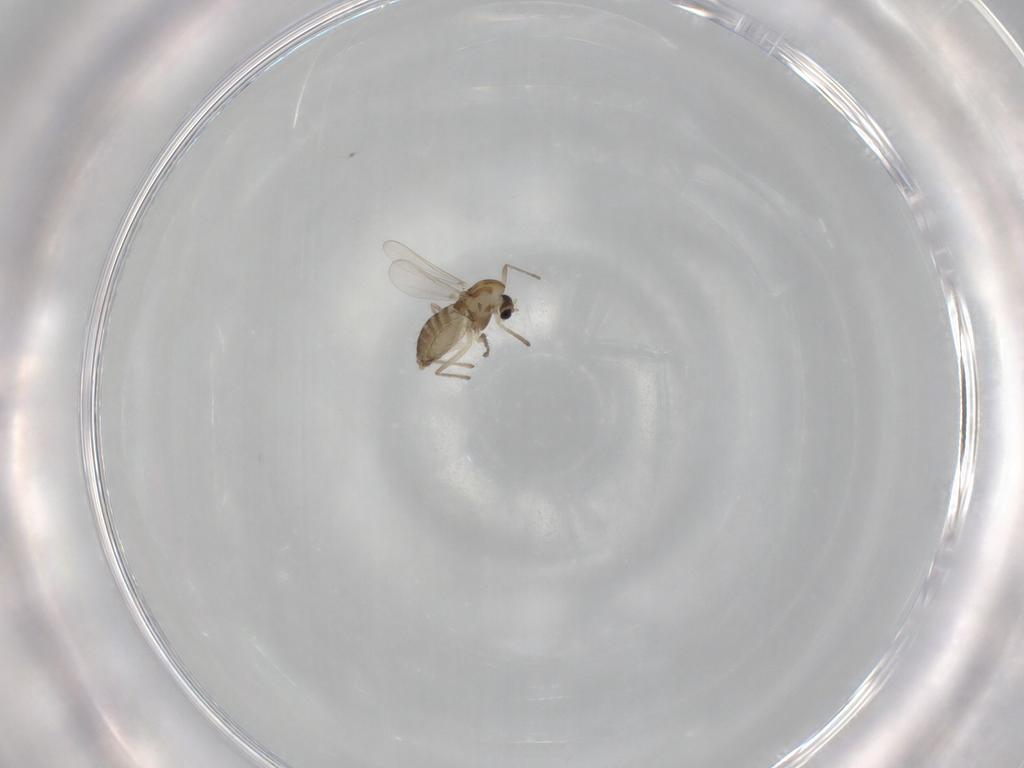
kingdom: Animalia
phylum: Arthropoda
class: Insecta
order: Diptera
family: Chironomidae
